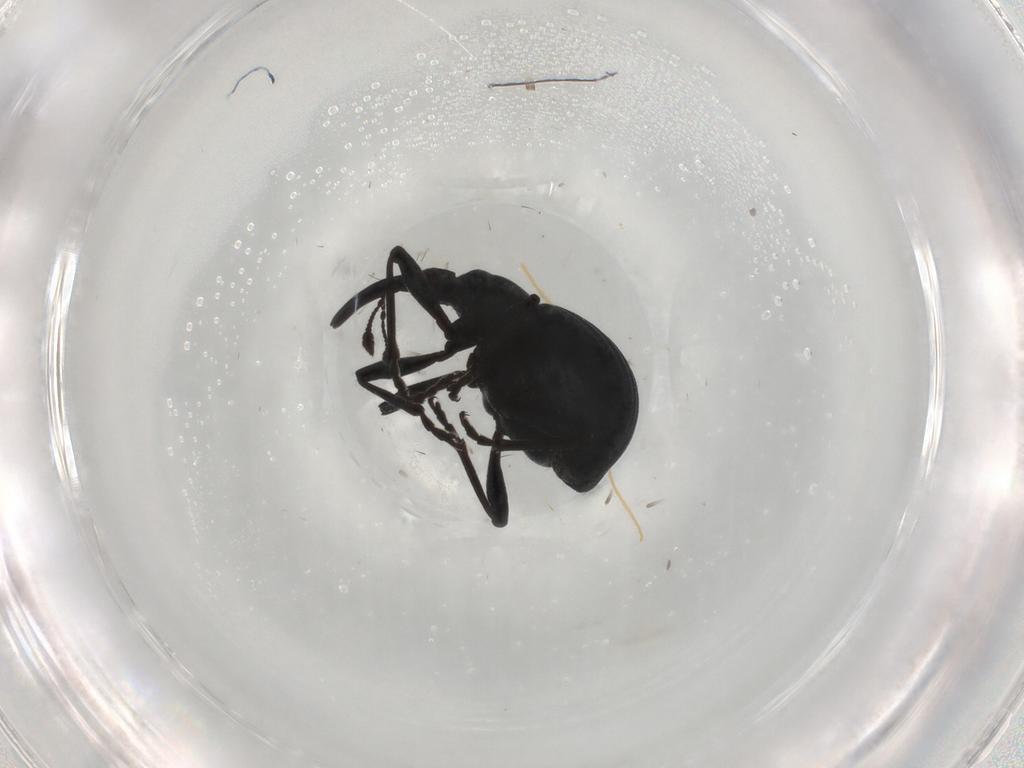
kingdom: Animalia
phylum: Arthropoda
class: Insecta
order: Coleoptera
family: Apionidae
